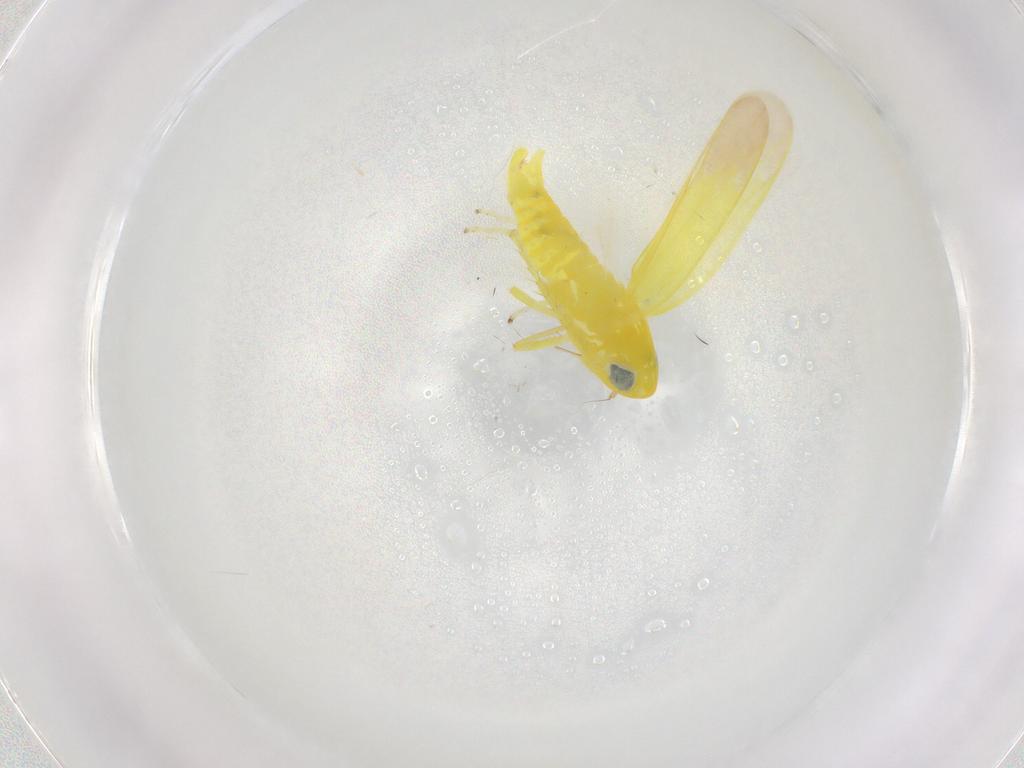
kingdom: Animalia
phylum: Arthropoda
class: Insecta
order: Hemiptera
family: Cicadellidae
